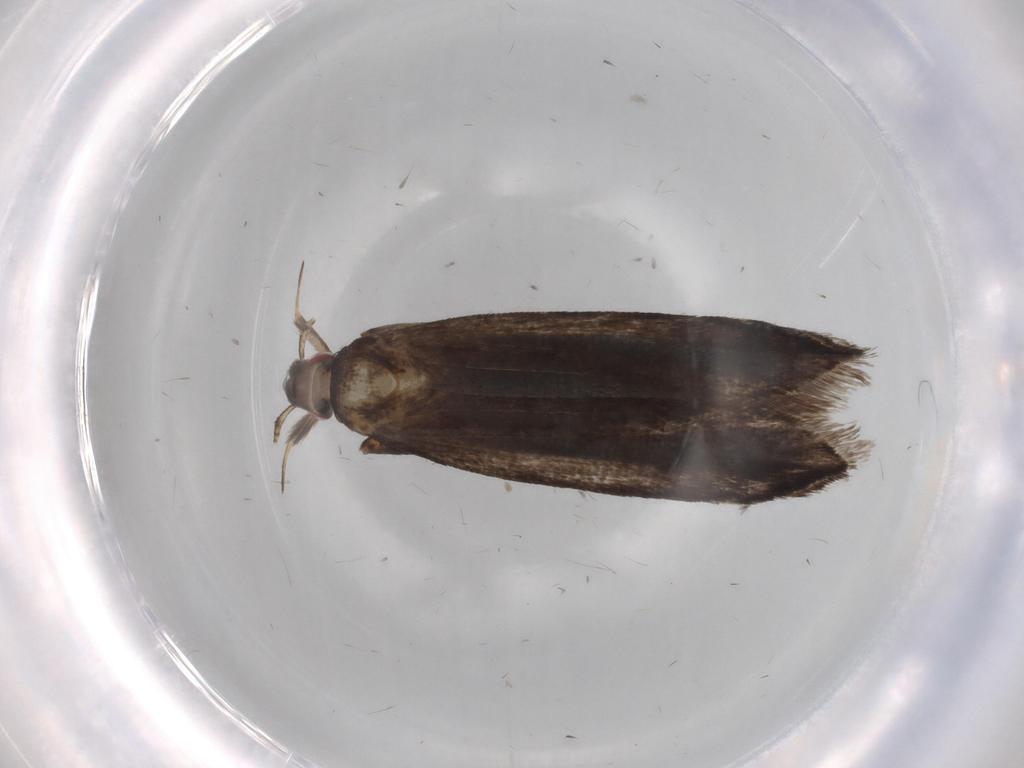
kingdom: Animalia
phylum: Arthropoda
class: Insecta
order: Lepidoptera
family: Gelechiidae
